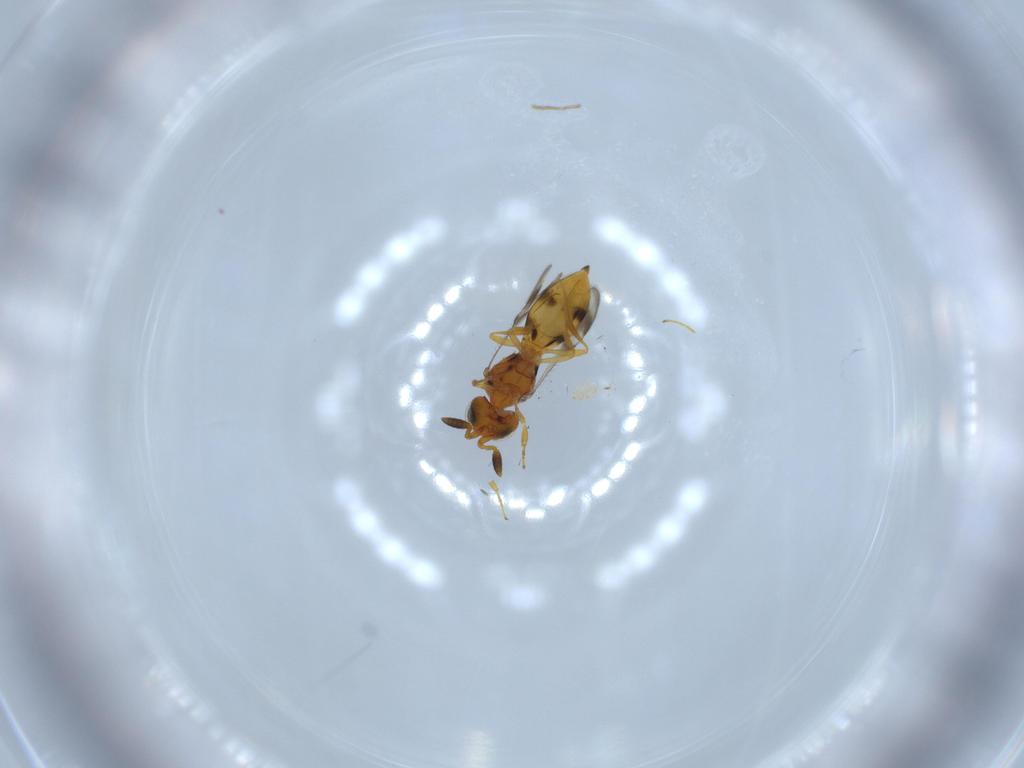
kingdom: Animalia
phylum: Arthropoda
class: Insecta
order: Hymenoptera
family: Scelionidae
